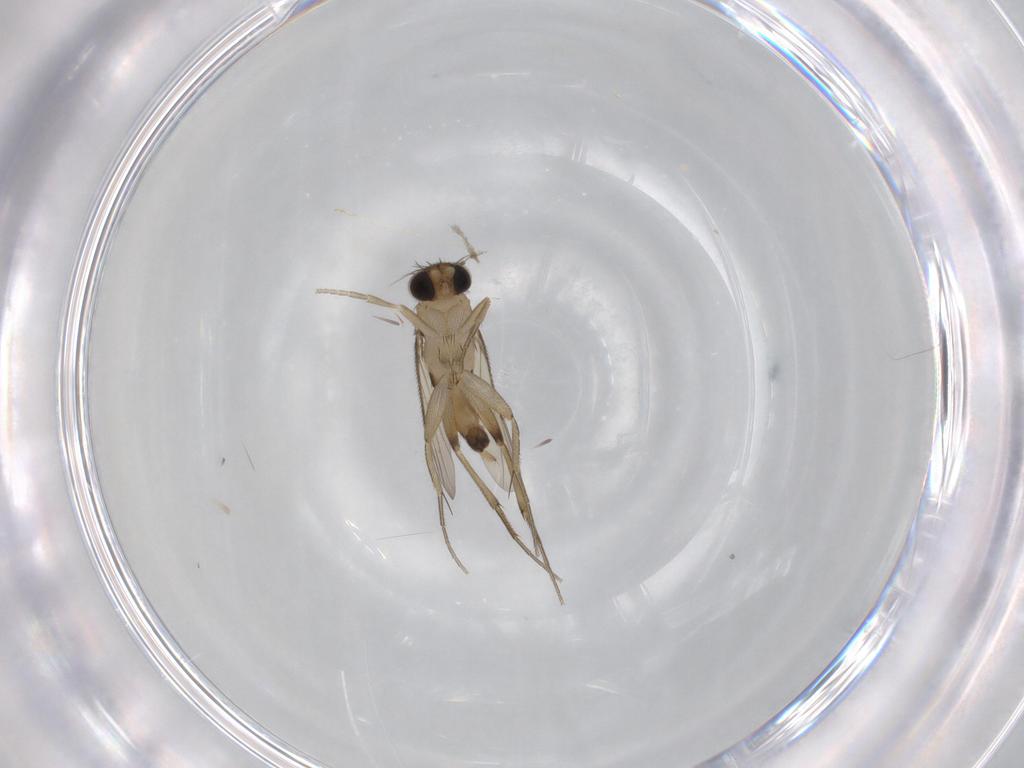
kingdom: Animalia
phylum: Arthropoda
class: Insecta
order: Diptera
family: Phoridae
